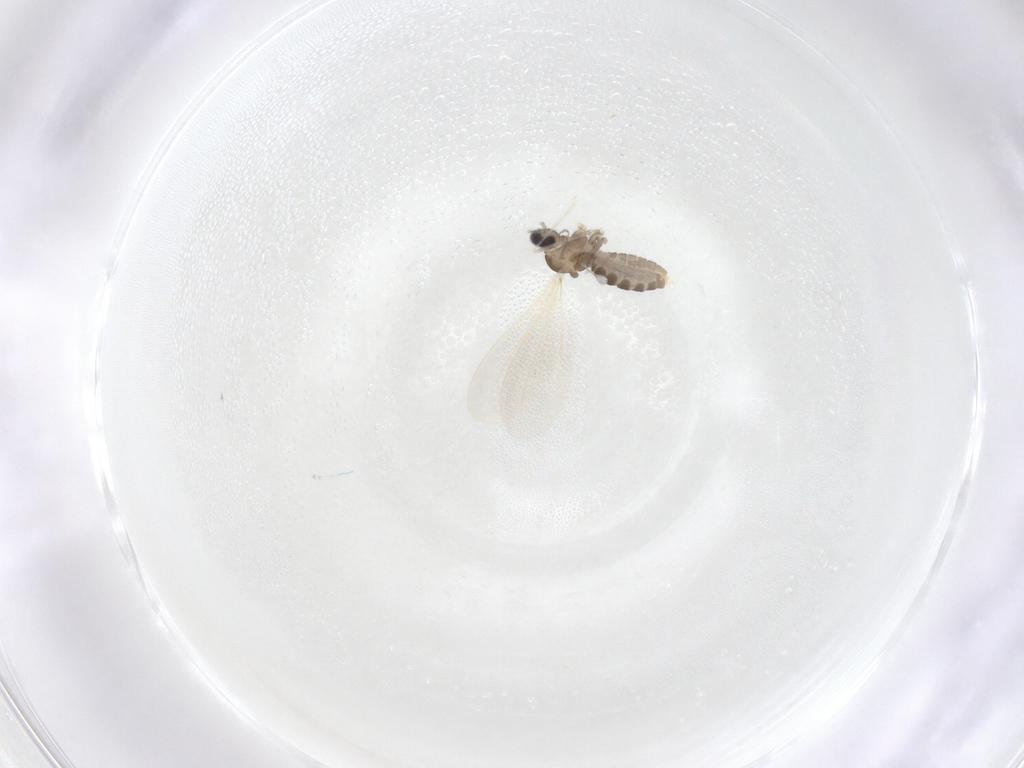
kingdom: Animalia
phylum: Arthropoda
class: Insecta
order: Diptera
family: Cecidomyiidae
